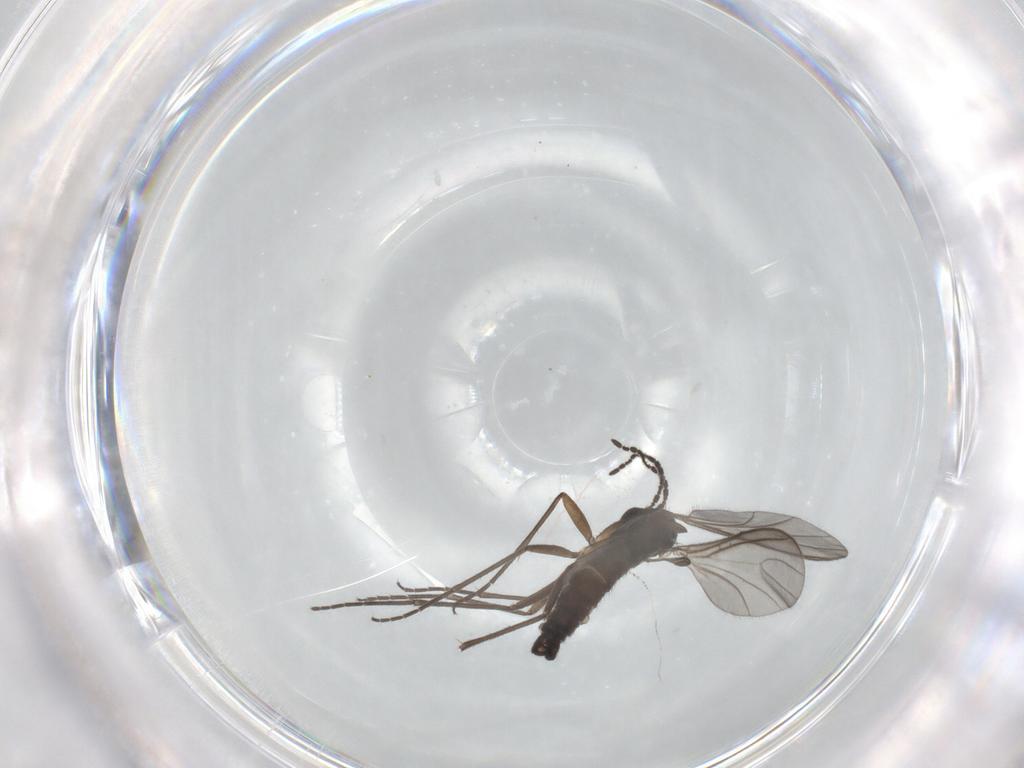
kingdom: Animalia
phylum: Arthropoda
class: Insecta
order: Diptera
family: Sciaridae
